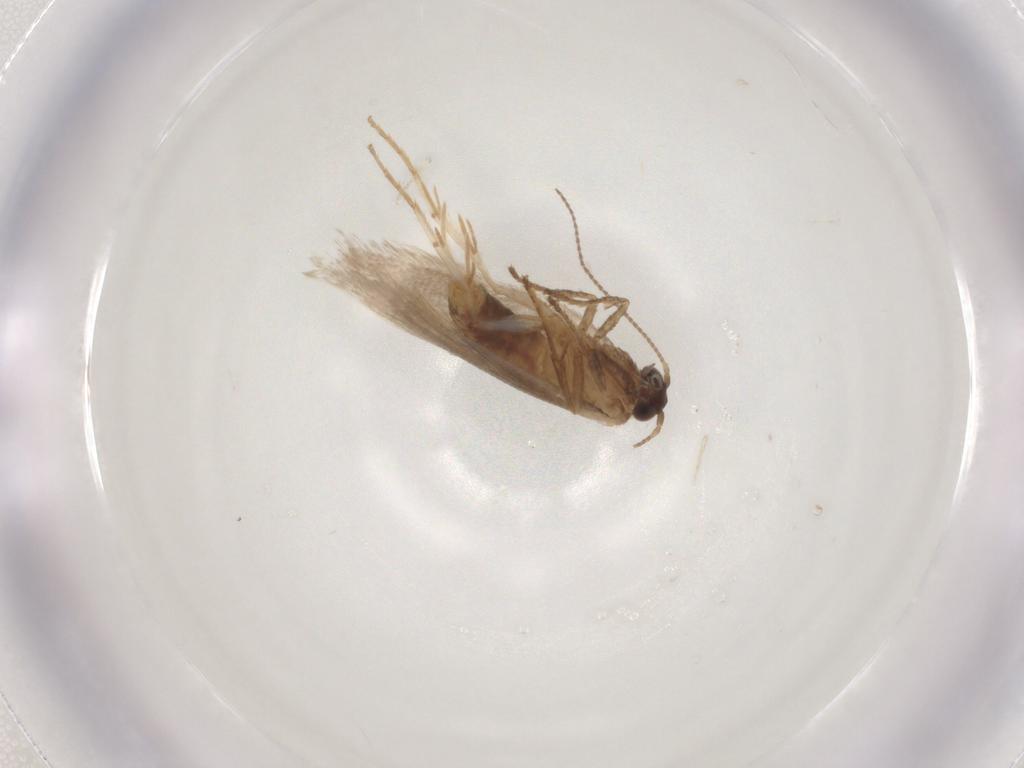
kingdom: Animalia
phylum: Arthropoda
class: Insecta
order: Lepidoptera
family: Nepticulidae
